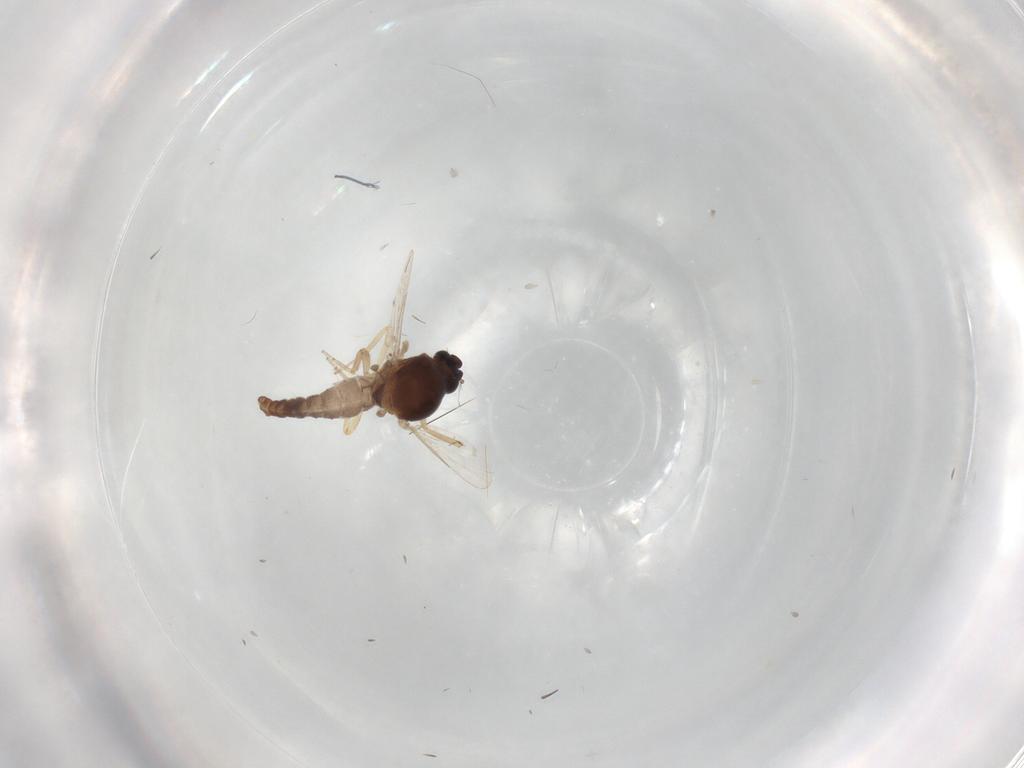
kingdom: Animalia
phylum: Arthropoda
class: Insecta
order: Diptera
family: Ceratopogonidae
